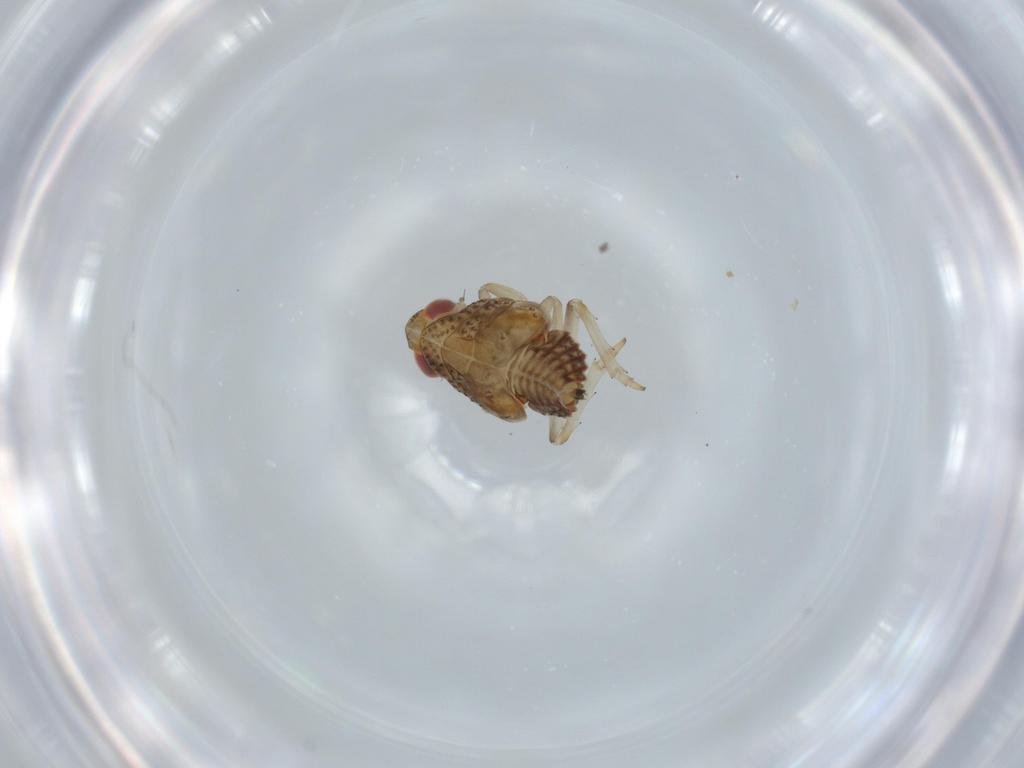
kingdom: Animalia
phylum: Arthropoda
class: Insecta
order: Hemiptera
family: Issidae
